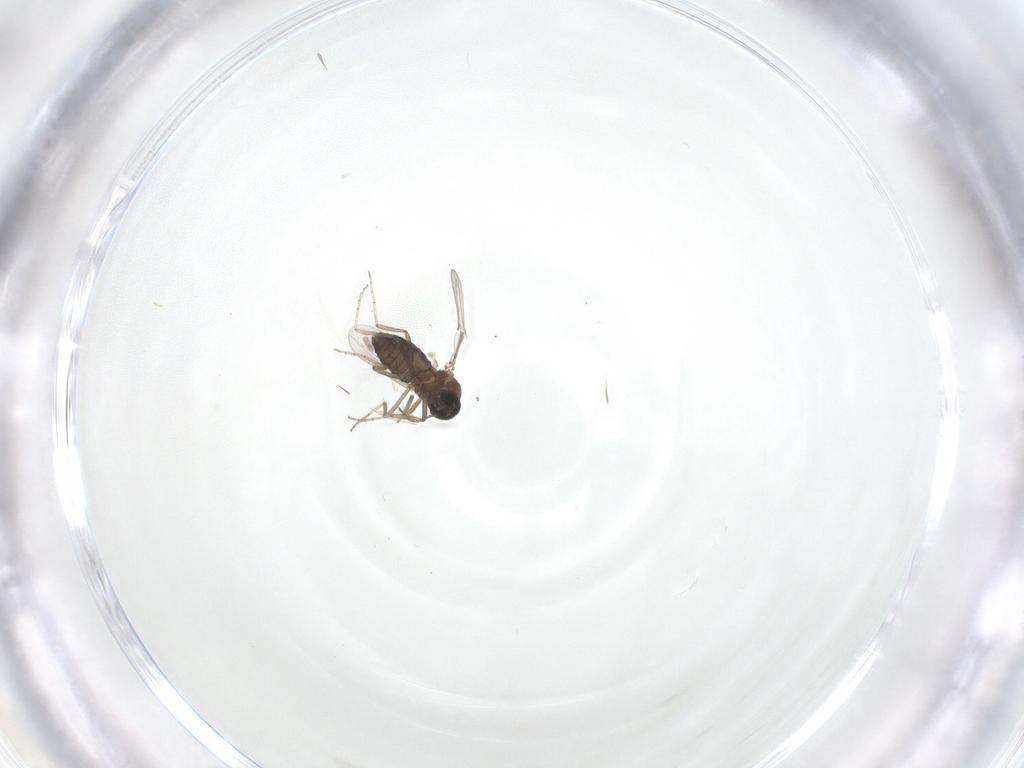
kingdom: Animalia
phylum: Arthropoda
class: Insecta
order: Diptera
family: Ceratopogonidae
